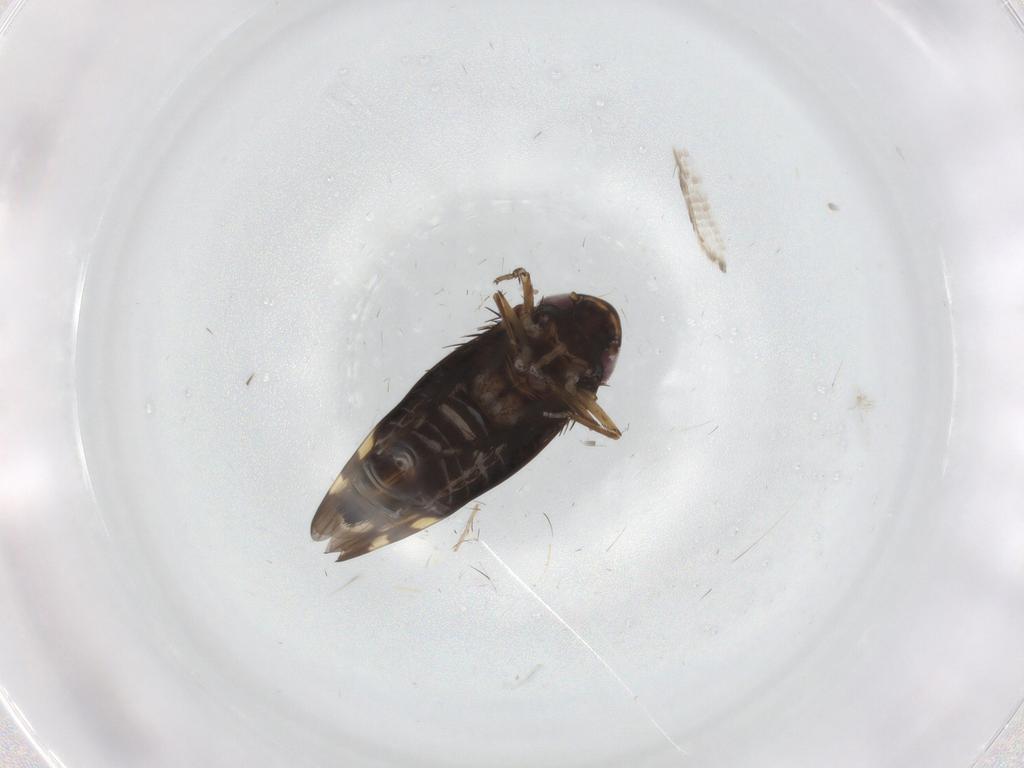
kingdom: Animalia
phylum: Arthropoda
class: Insecta
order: Hemiptera
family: Cicadellidae
